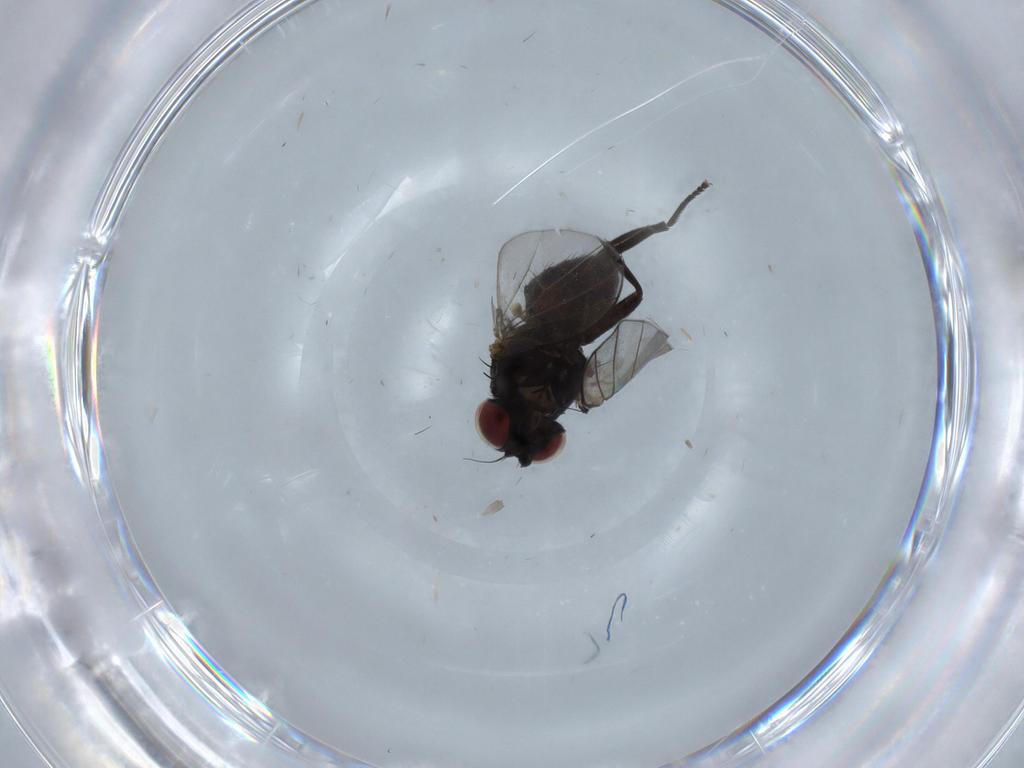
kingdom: Animalia
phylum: Arthropoda
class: Insecta
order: Diptera
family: Agromyzidae
